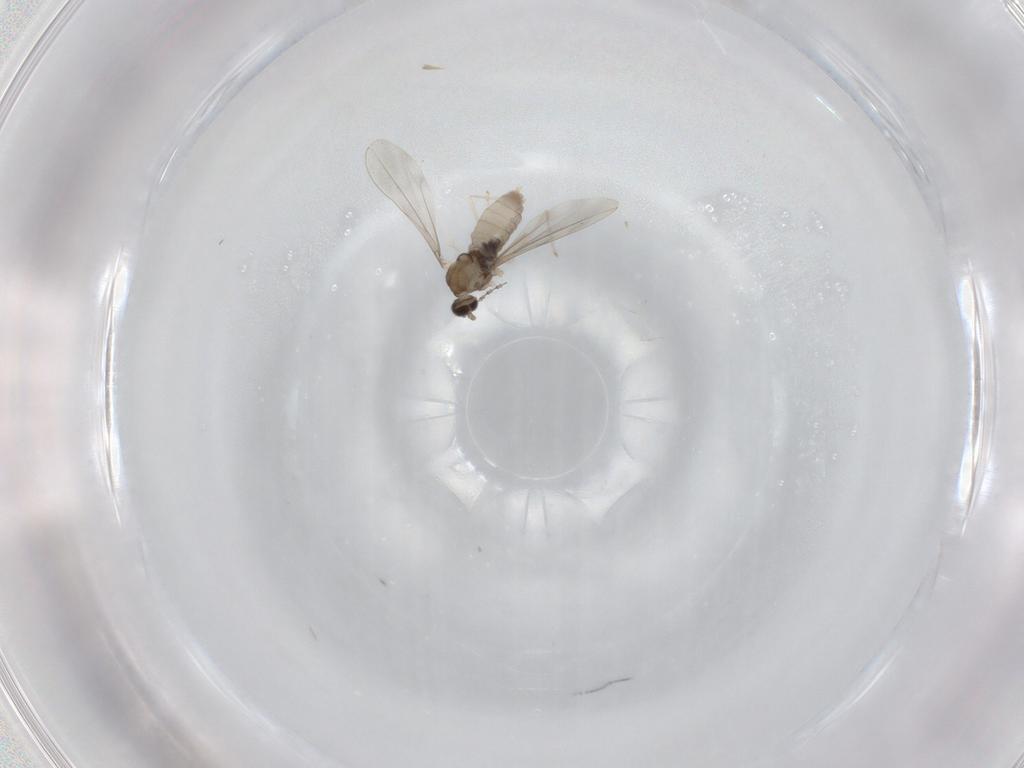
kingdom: Animalia
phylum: Arthropoda
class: Insecta
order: Diptera
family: Cecidomyiidae
